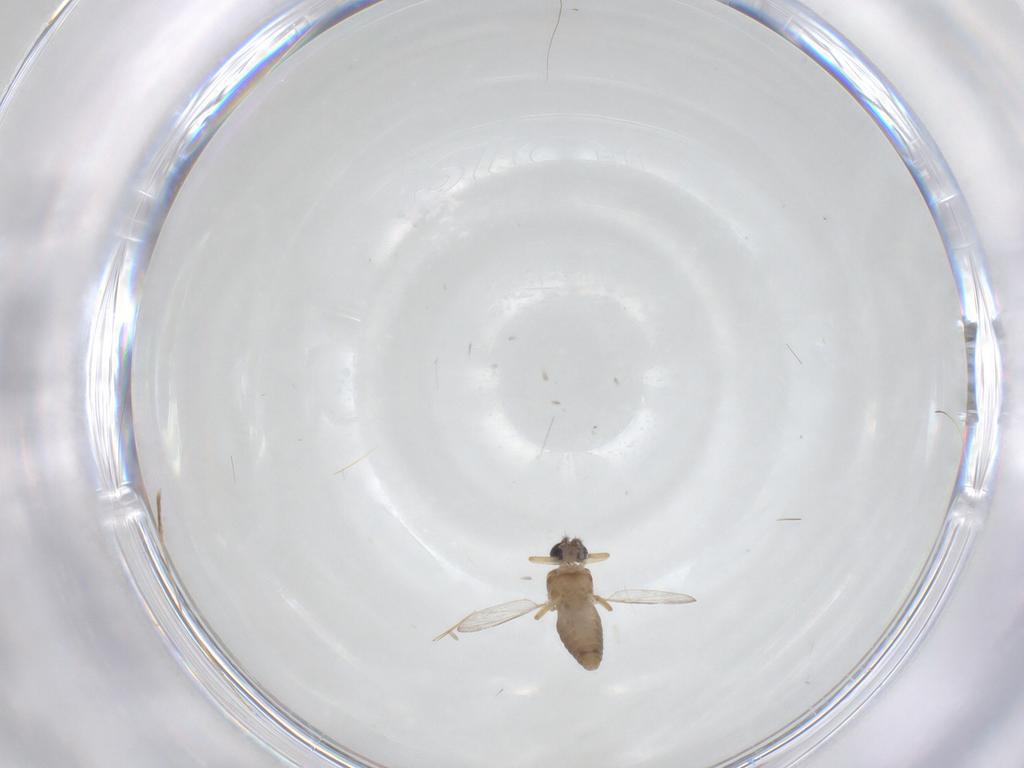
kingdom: Animalia
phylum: Arthropoda
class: Insecta
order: Diptera
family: Ceratopogonidae
